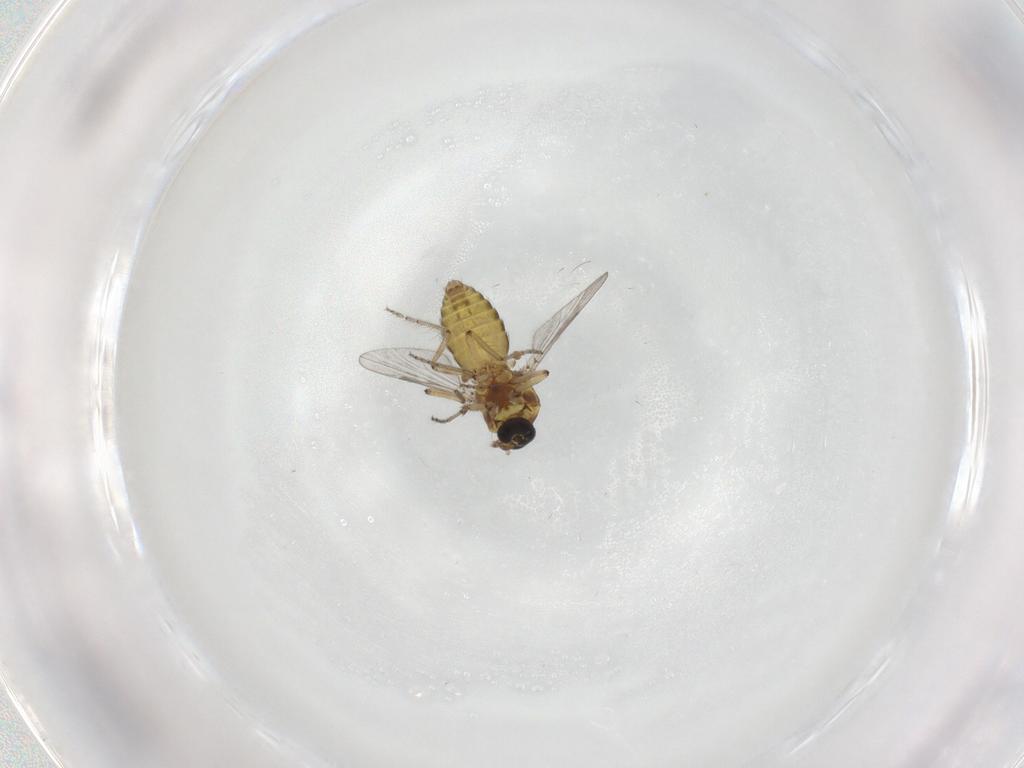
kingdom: Animalia
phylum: Arthropoda
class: Insecta
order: Diptera
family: Ceratopogonidae
